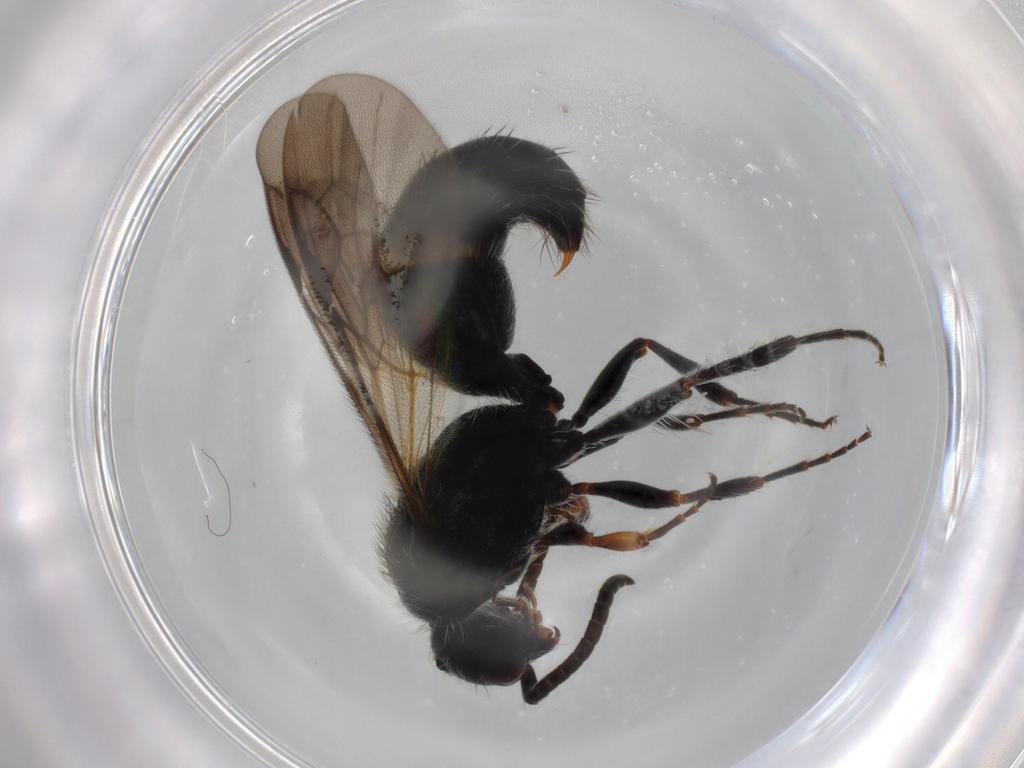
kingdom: Animalia
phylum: Arthropoda
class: Insecta
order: Hymenoptera
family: Mutillidae
